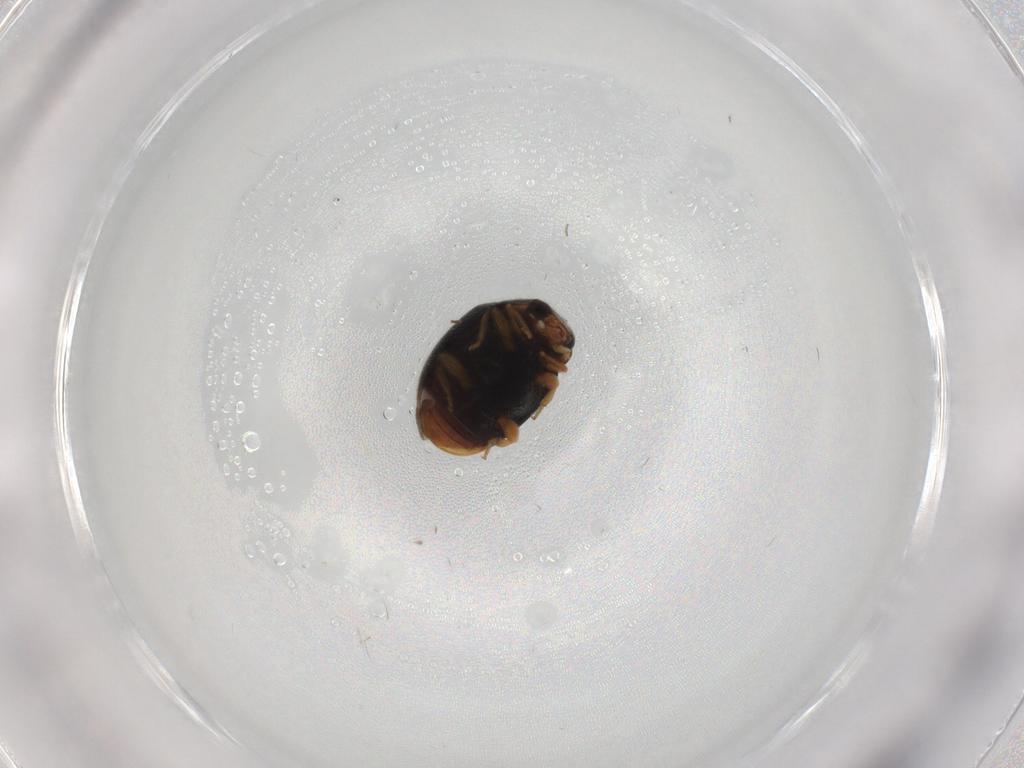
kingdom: Animalia
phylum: Arthropoda
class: Insecta
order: Coleoptera
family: Coccinellidae
